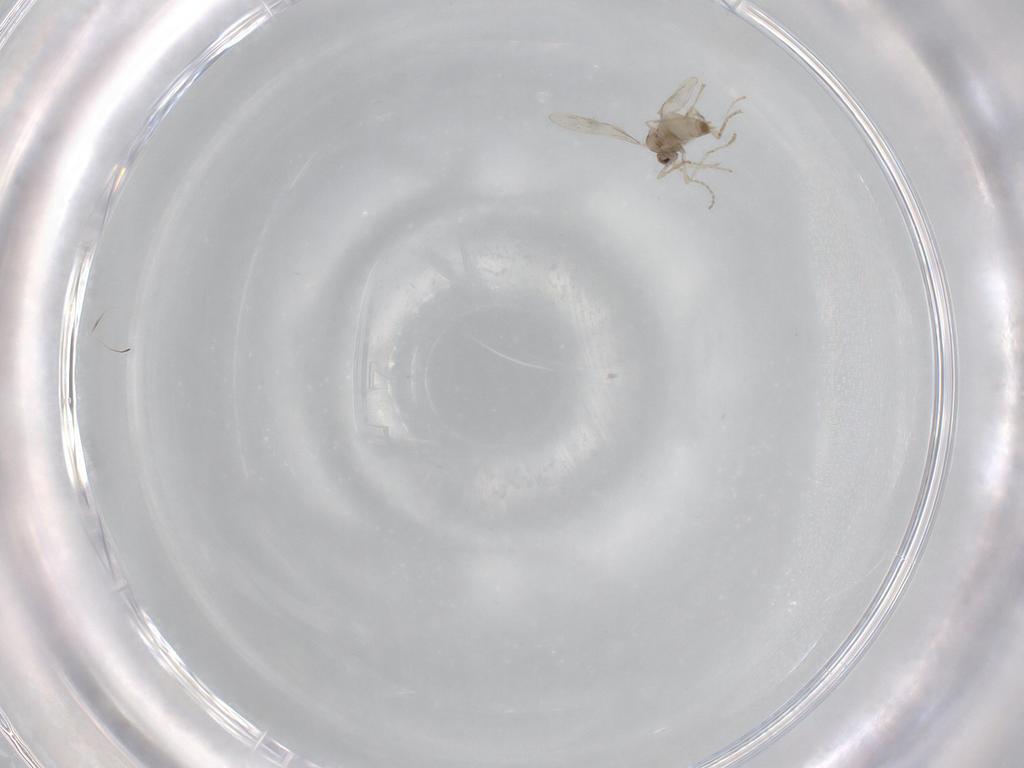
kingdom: Animalia
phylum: Arthropoda
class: Insecta
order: Diptera
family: Cecidomyiidae
